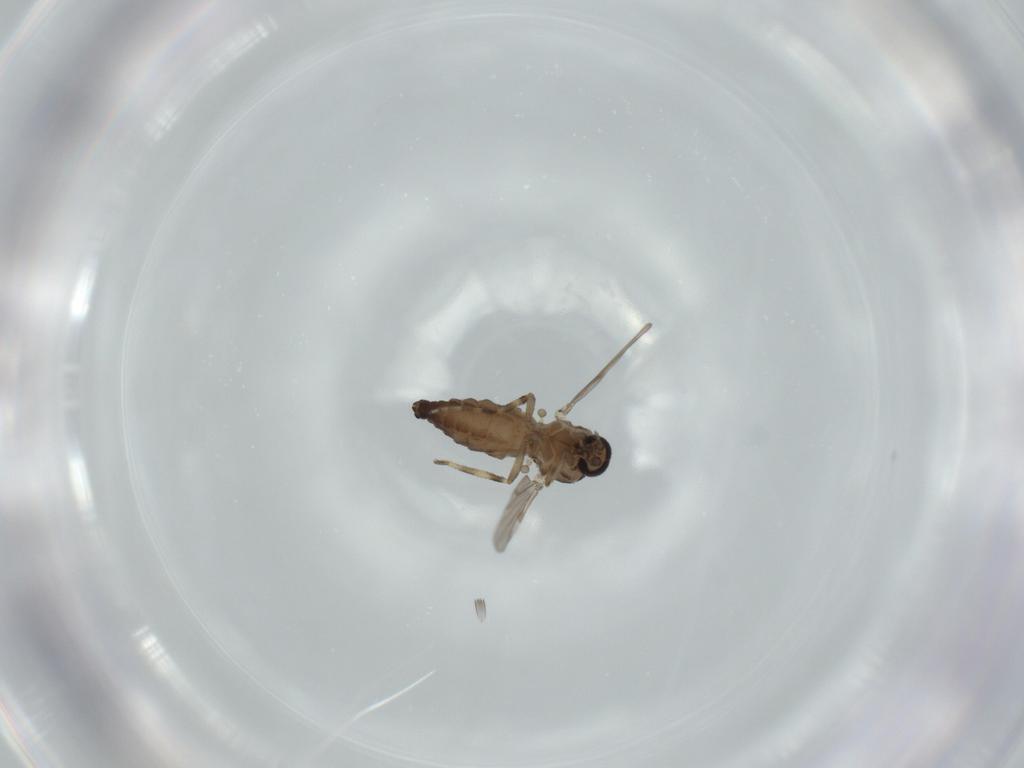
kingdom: Animalia
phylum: Arthropoda
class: Insecta
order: Diptera
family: Ceratopogonidae
